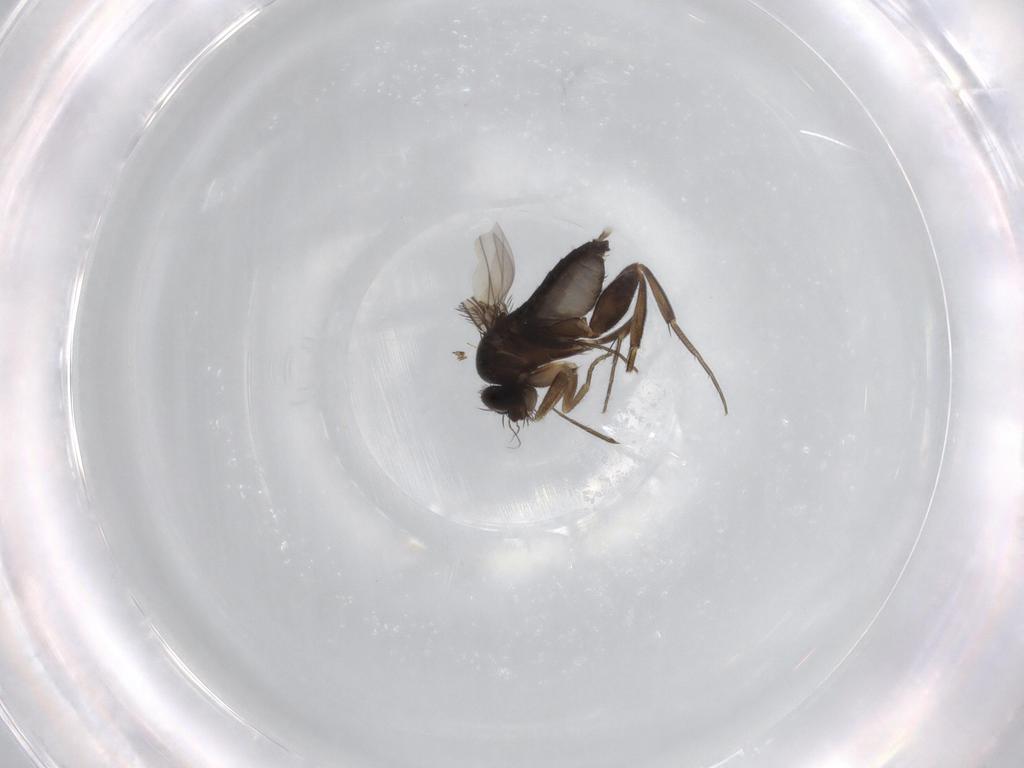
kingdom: Animalia
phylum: Arthropoda
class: Insecta
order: Diptera
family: Phoridae
